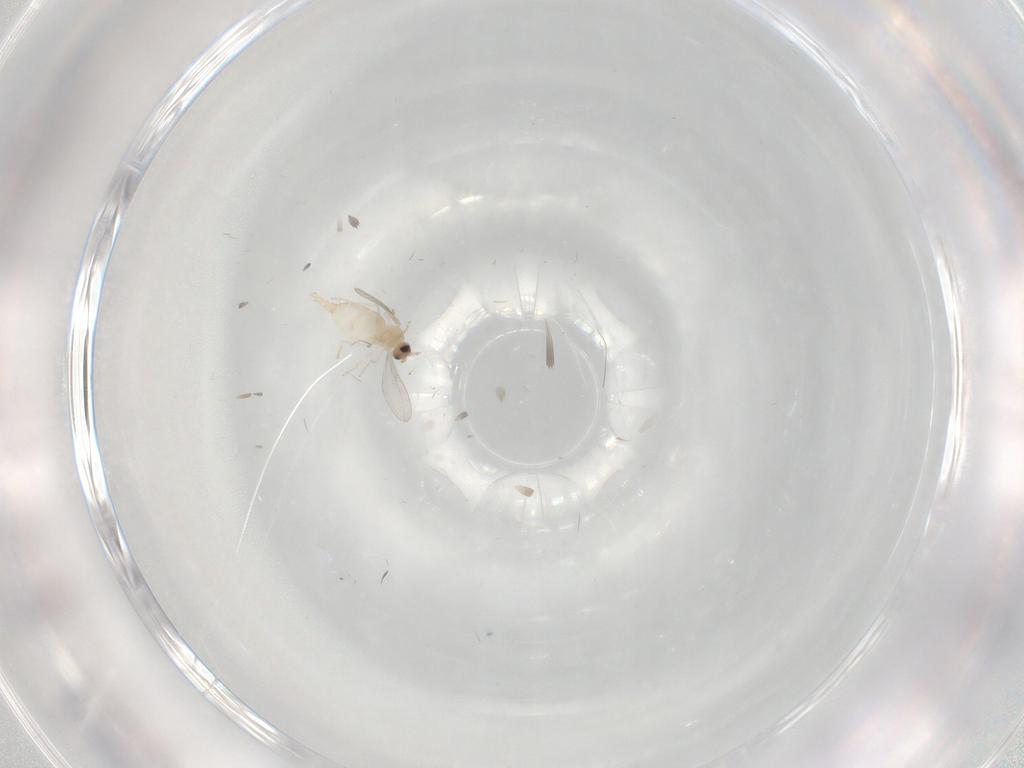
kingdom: Animalia
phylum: Arthropoda
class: Insecta
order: Diptera
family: Cecidomyiidae
